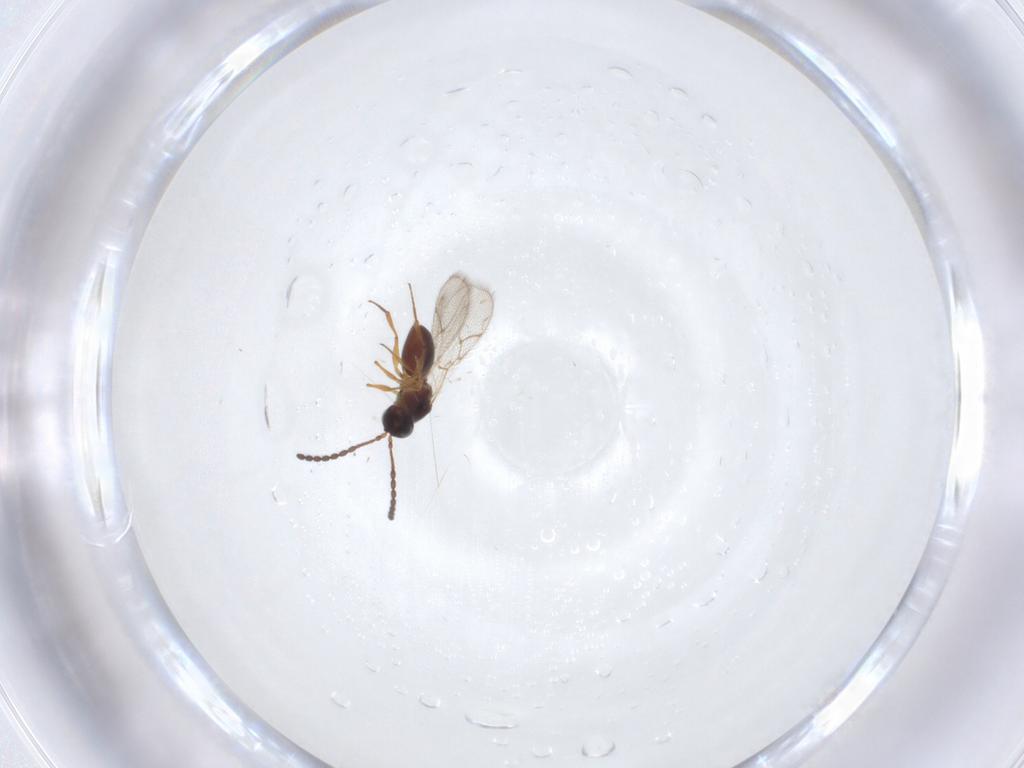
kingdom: Animalia
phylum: Arthropoda
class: Insecta
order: Hymenoptera
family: Figitidae
